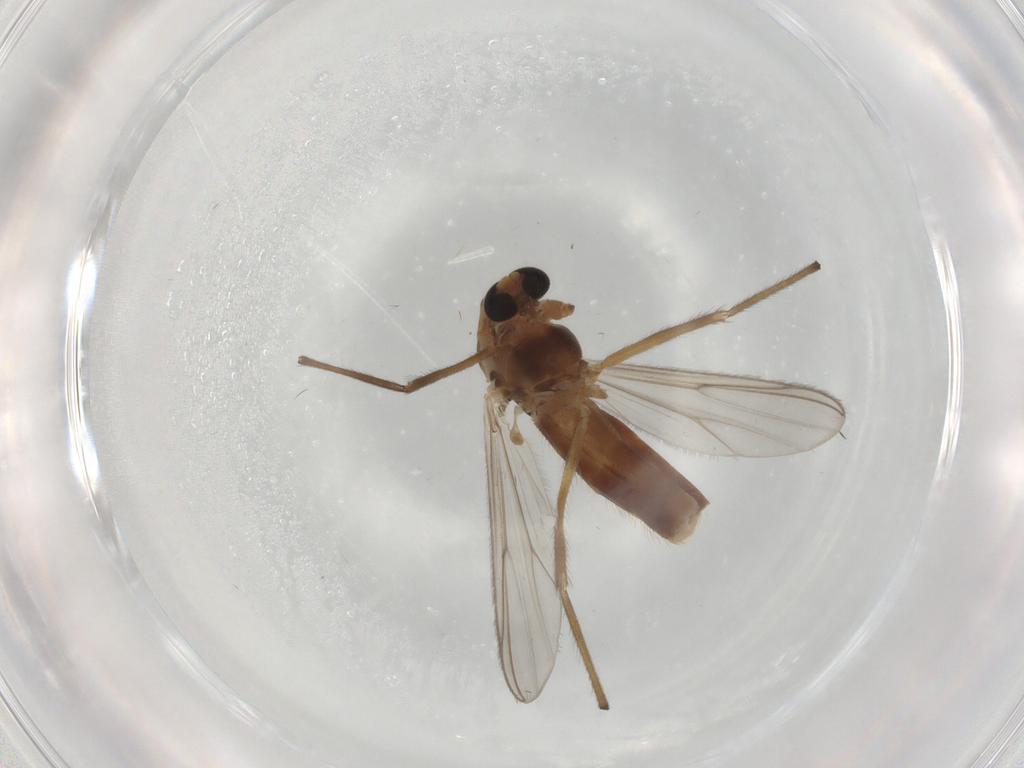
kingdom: Animalia
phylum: Arthropoda
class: Insecta
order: Diptera
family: Chironomidae
